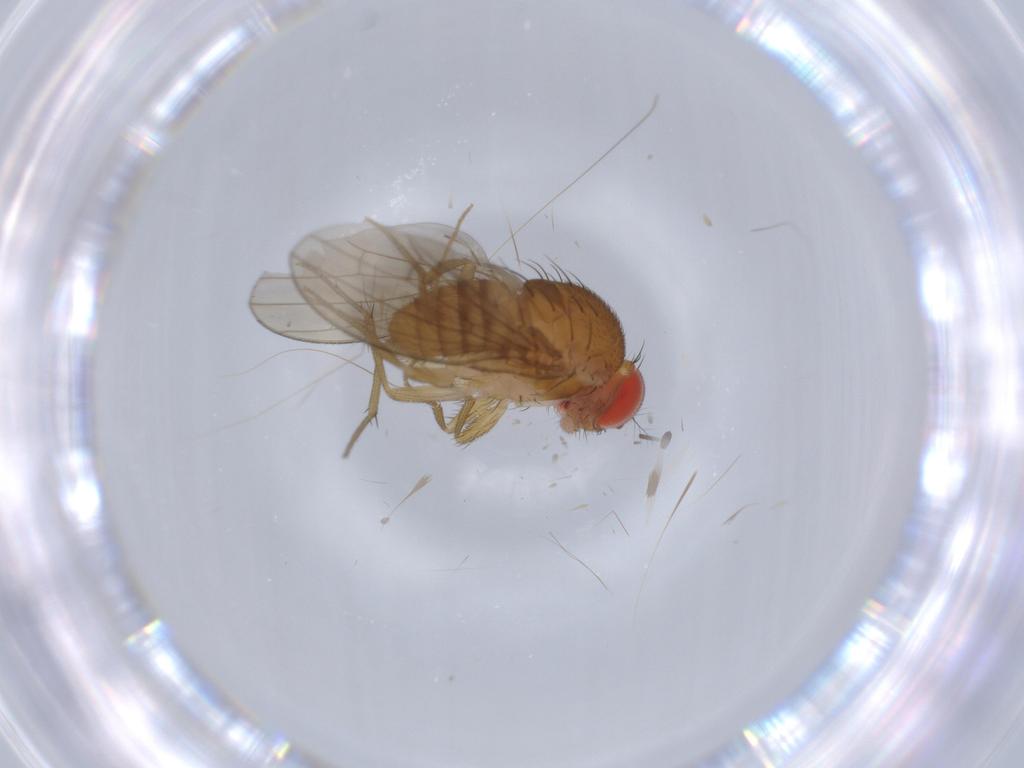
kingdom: Animalia
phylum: Arthropoda
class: Insecta
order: Diptera
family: Drosophilidae
